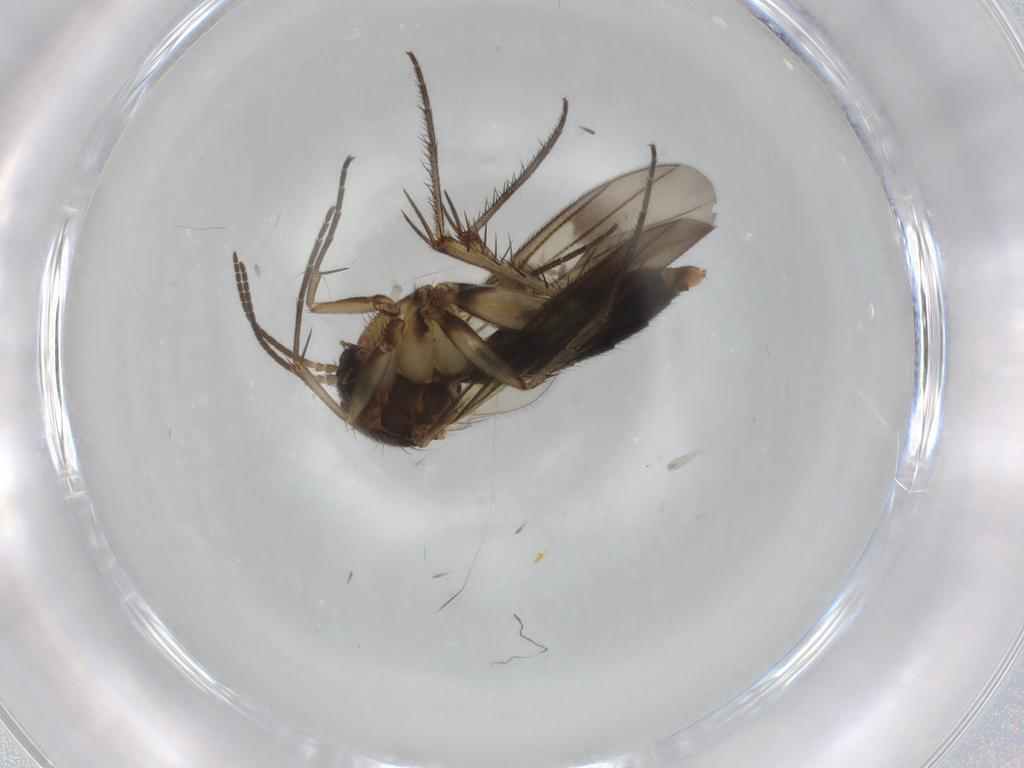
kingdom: Animalia
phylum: Arthropoda
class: Insecta
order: Diptera
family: Mycetophilidae
